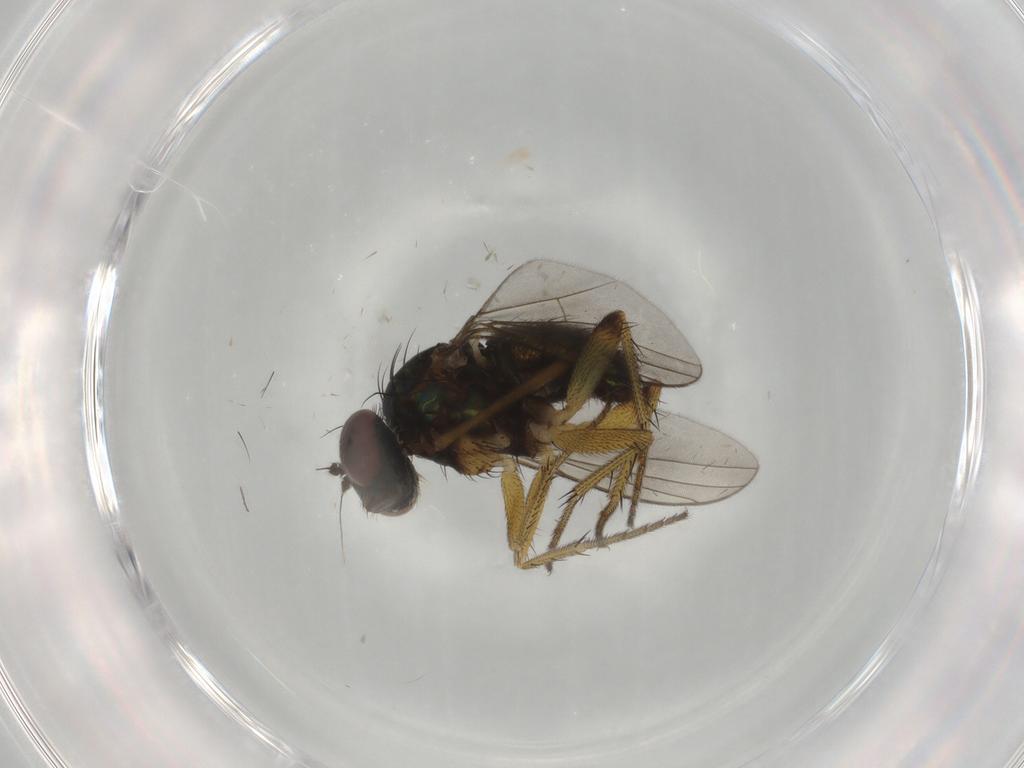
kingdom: Animalia
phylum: Arthropoda
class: Insecta
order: Diptera
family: Dolichopodidae
